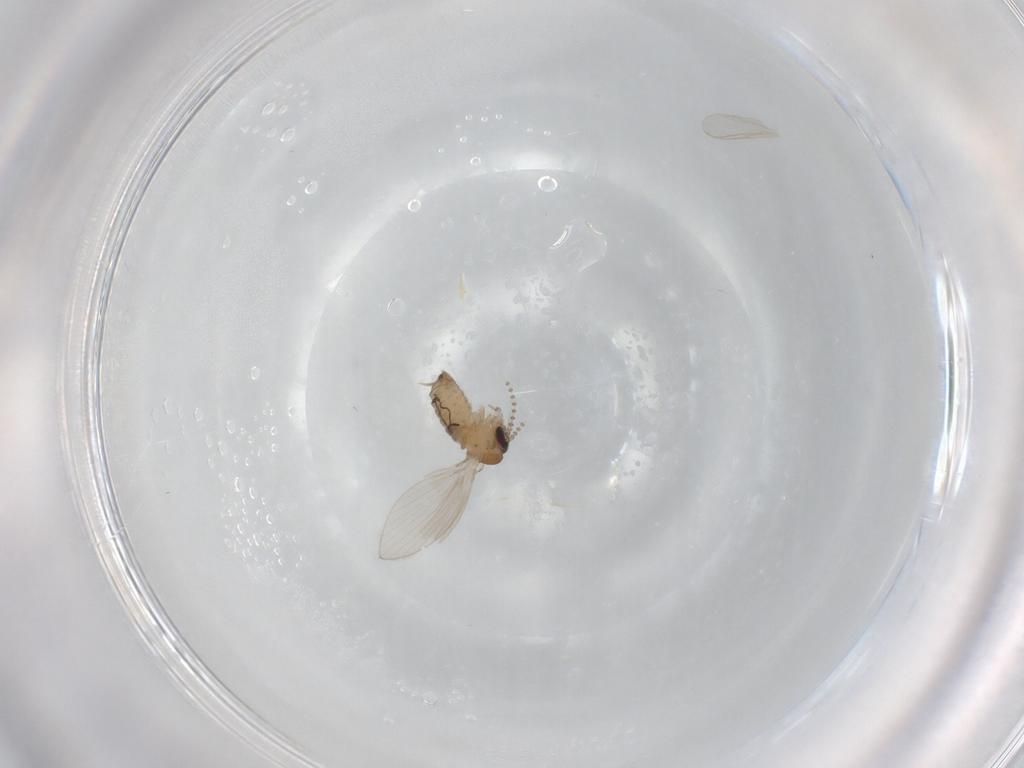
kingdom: Animalia
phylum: Arthropoda
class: Insecta
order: Diptera
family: Psychodidae
